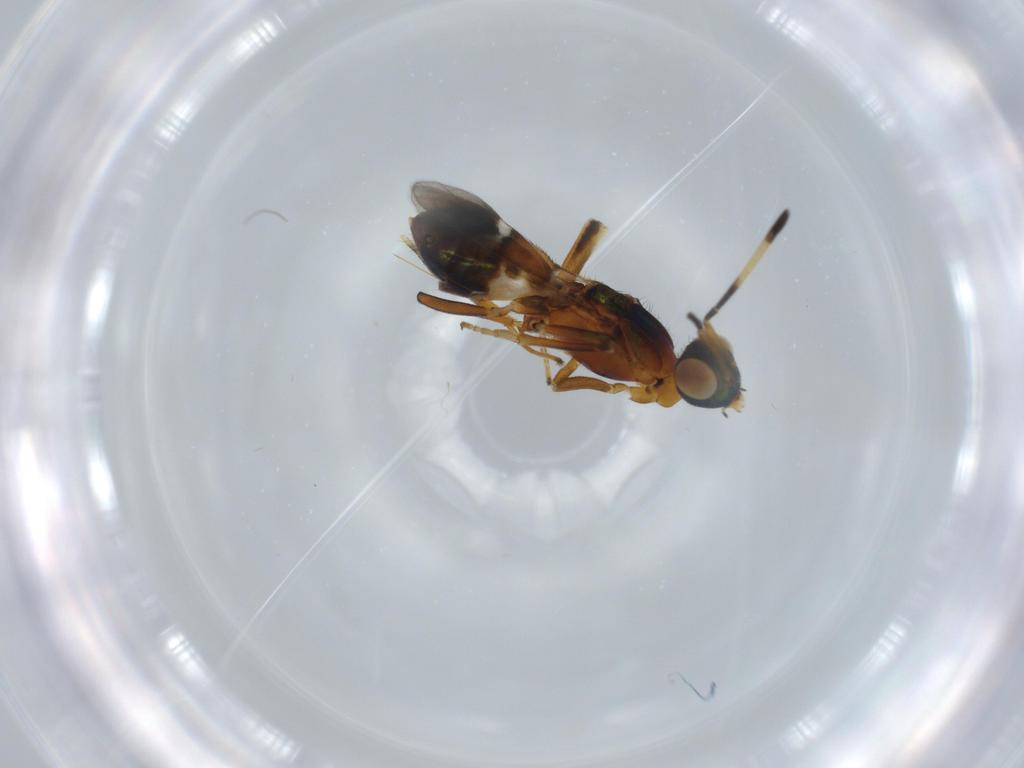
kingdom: Animalia
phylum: Arthropoda
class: Insecta
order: Hymenoptera
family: Eupelmidae
